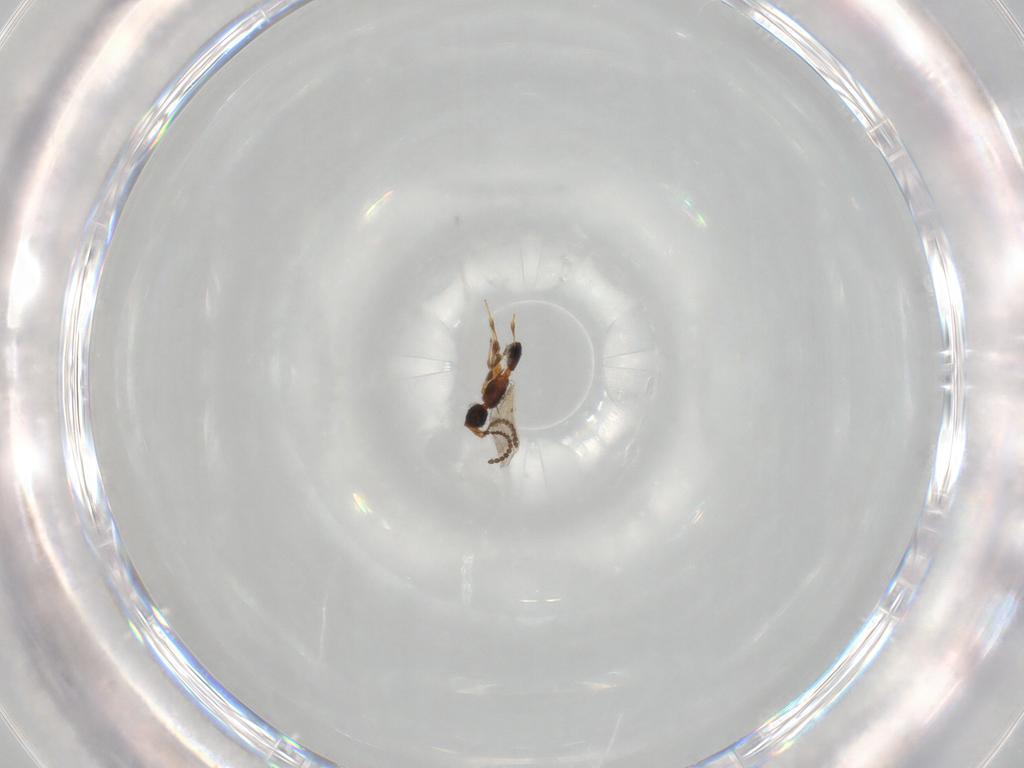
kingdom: Animalia
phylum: Arthropoda
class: Insecta
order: Hymenoptera
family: Diapriidae
